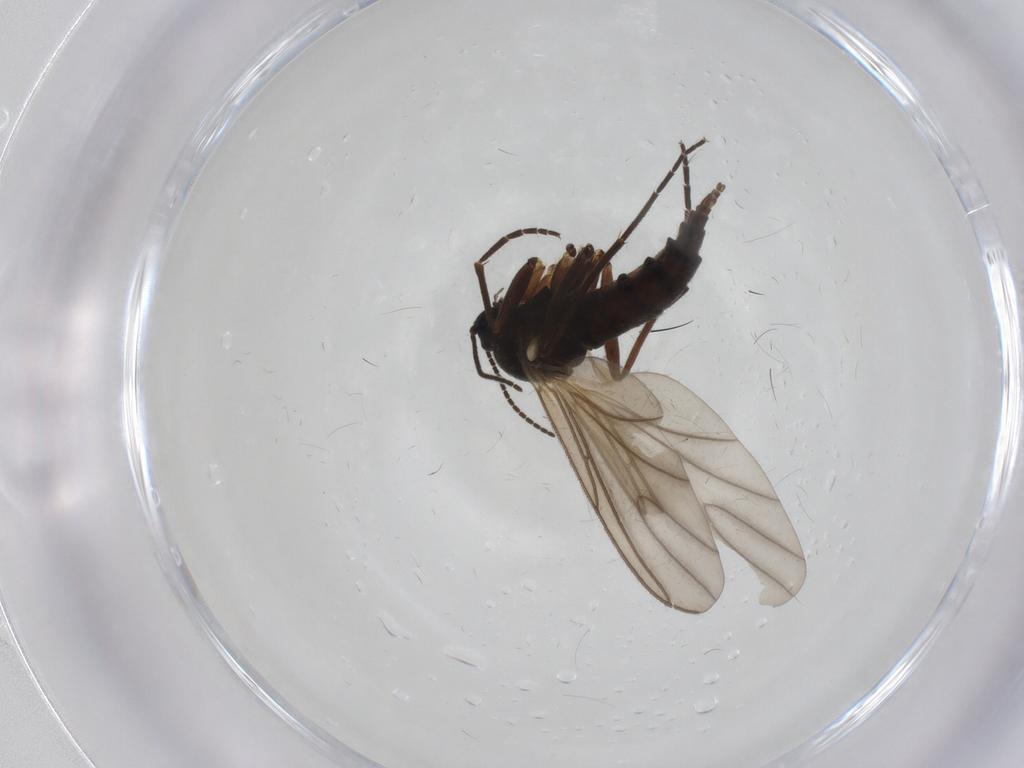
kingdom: Animalia
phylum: Arthropoda
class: Insecta
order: Diptera
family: Sciaridae
